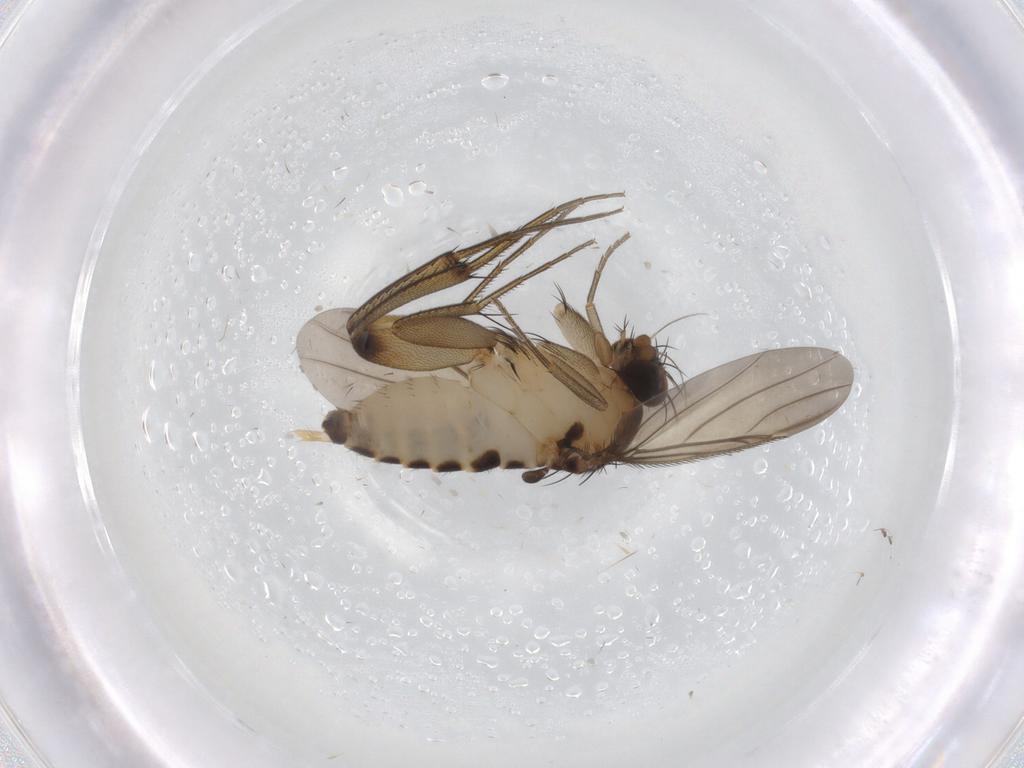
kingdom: Animalia
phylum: Arthropoda
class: Insecta
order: Diptera
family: Phoridae
